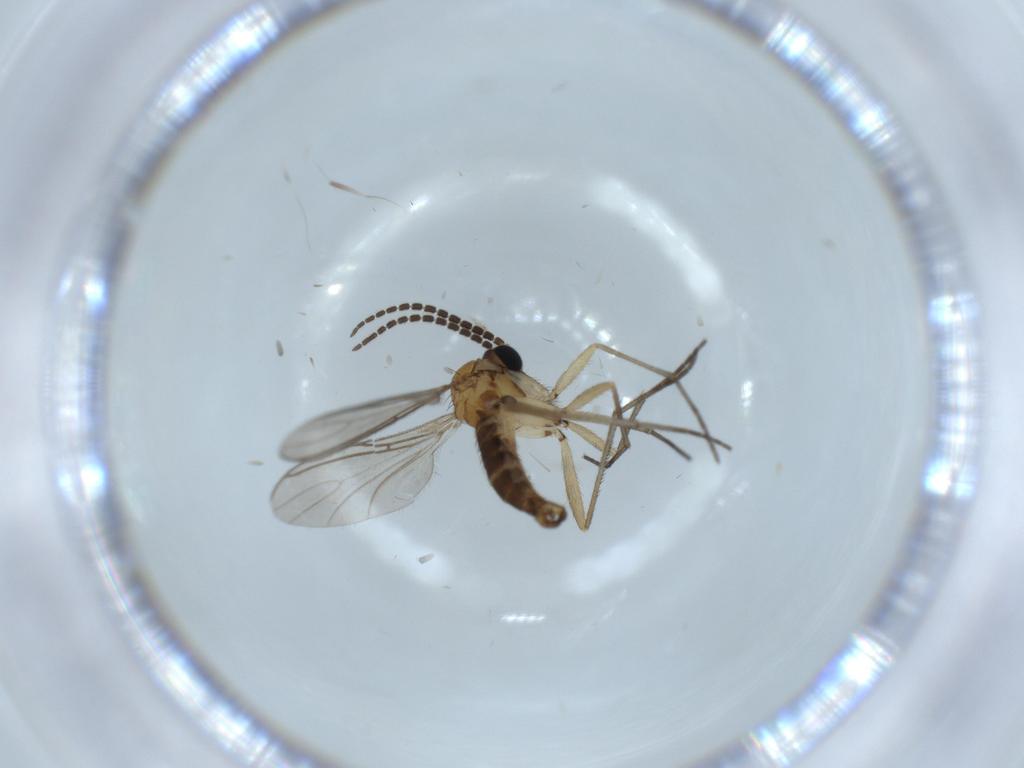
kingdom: Animalia
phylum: Arthropoda
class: Insecta
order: Diptera
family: Sciaridae
